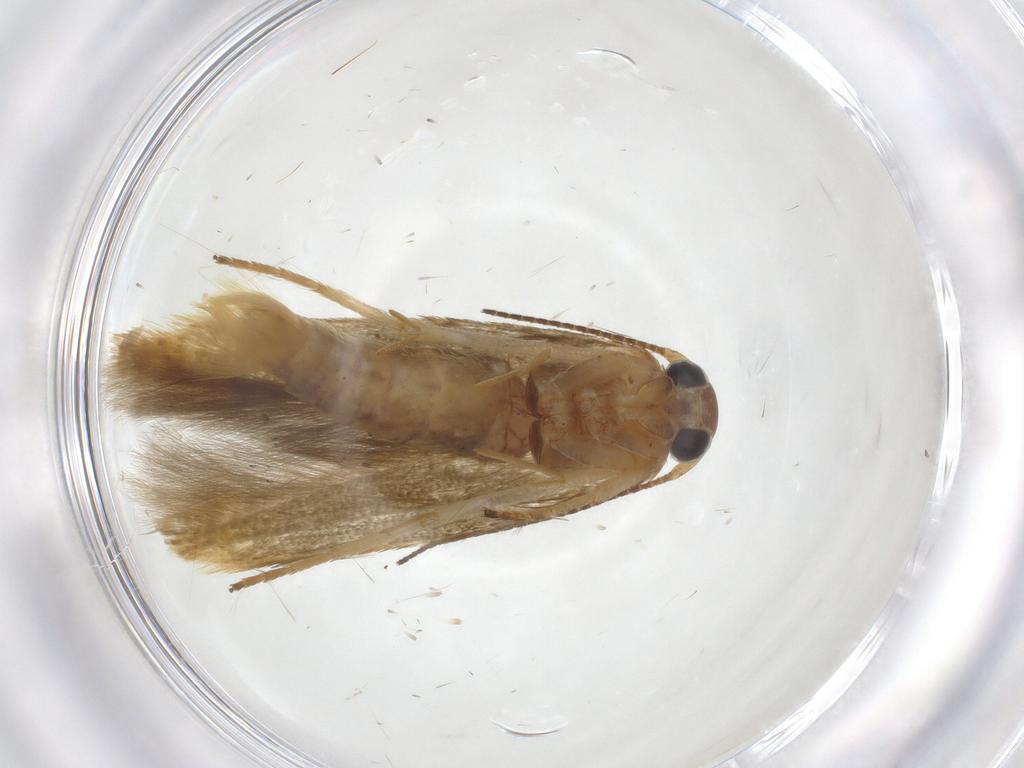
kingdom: Animalia
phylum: Arthropoda
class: Insecta
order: Lepidoptera
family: Stathmopodidae
